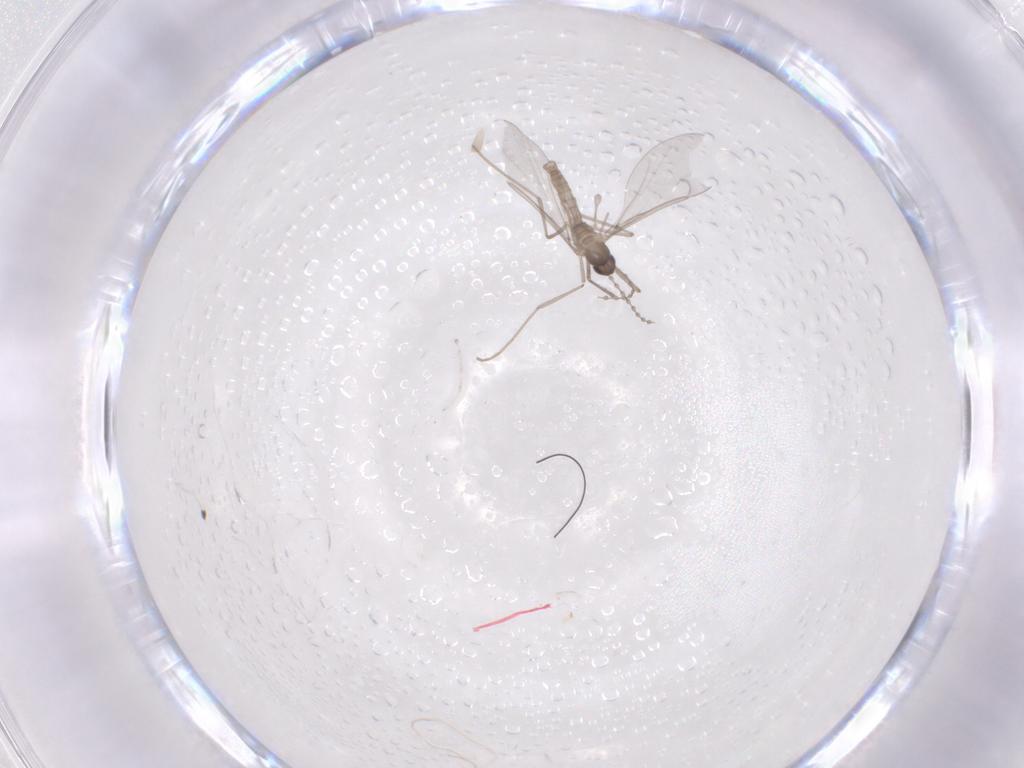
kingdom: Animalia
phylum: Arthropoda
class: Insecta
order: Diptera
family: Cecidomyiidae
